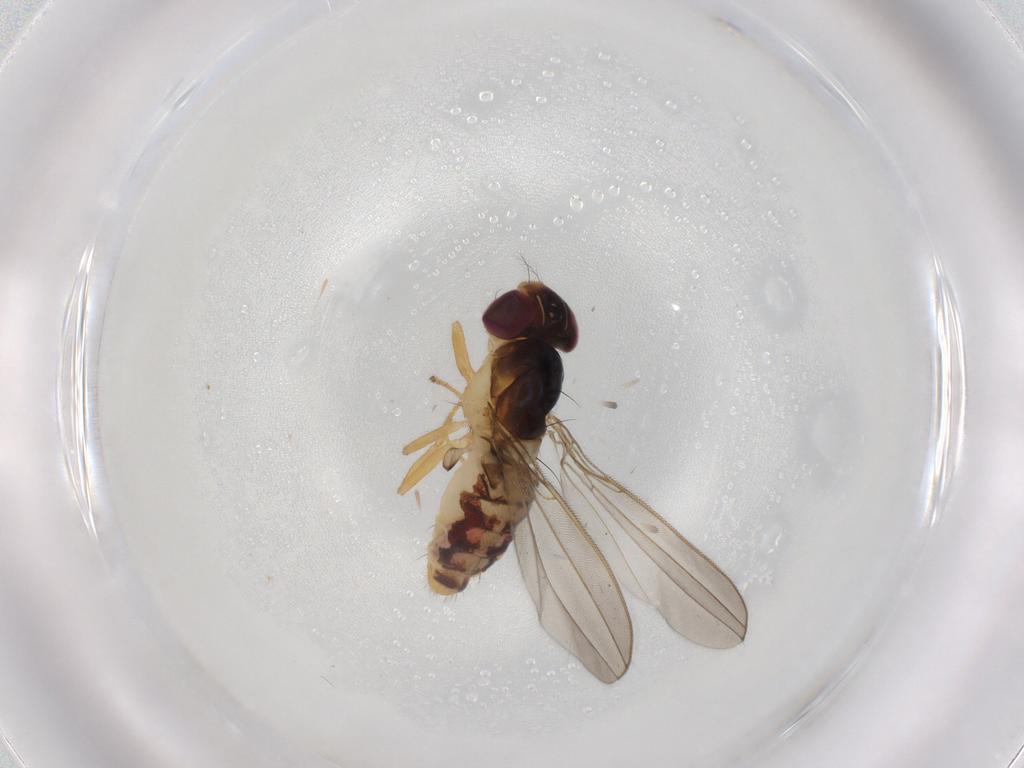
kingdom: Animalia
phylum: Arthropoda
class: Insecta
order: Diptera
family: Asteiidae
